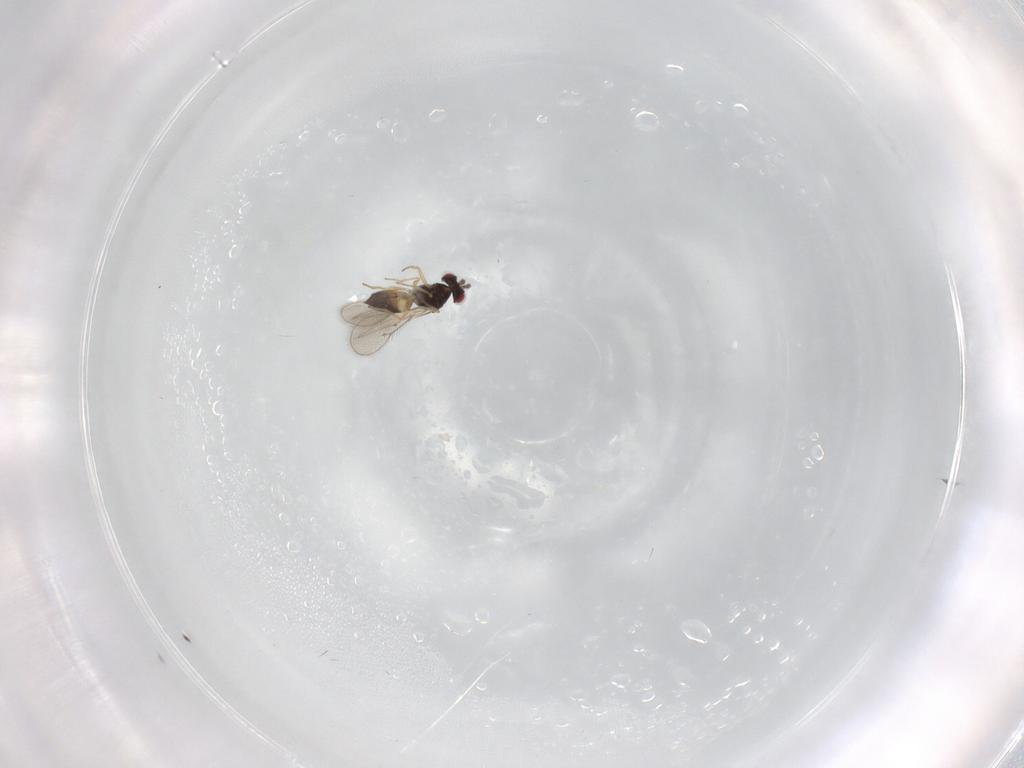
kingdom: Animalia
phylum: Arthropoda
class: Insecta
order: Hymenoptera
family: Eulophidae
